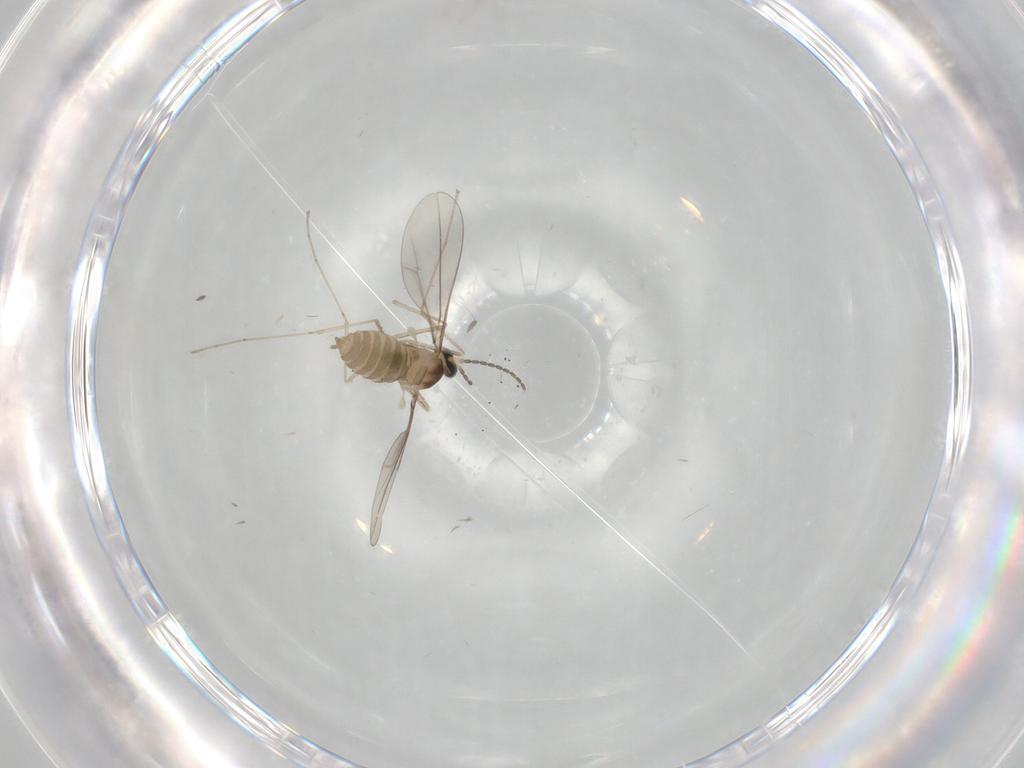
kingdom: Animalia
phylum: Arthropoda
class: Insecta
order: Diptera
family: Cecidomyiidae
